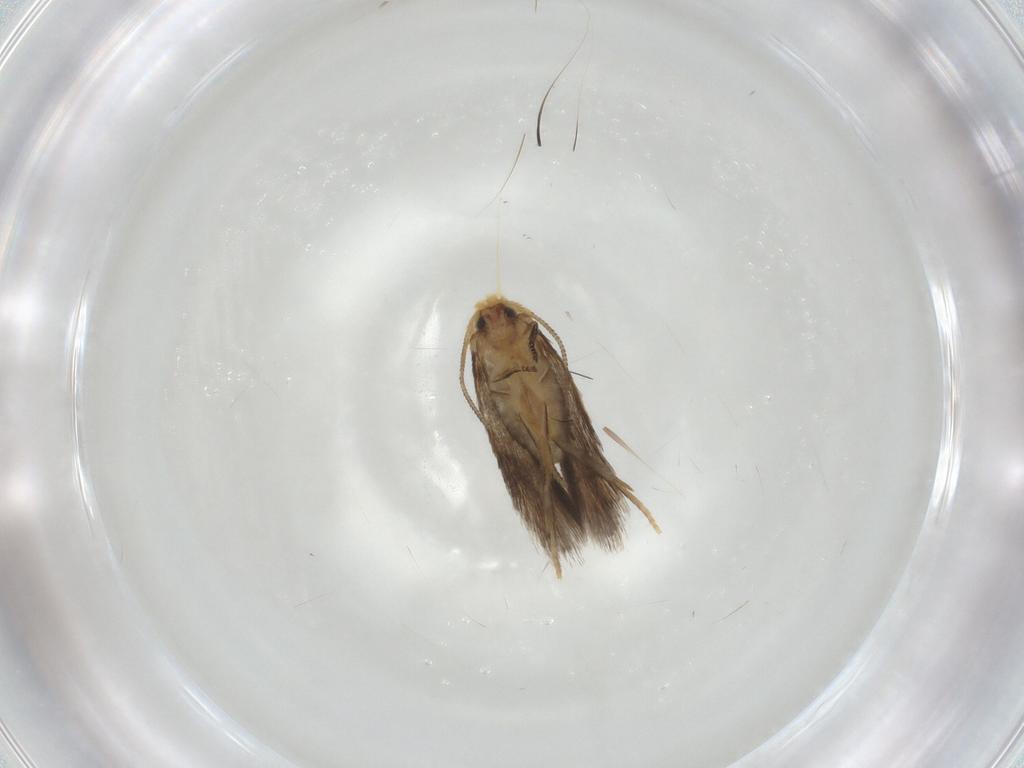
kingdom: Animalia
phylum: Arthropoda
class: Insecta
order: Lepidoptera
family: Nepticulidae
